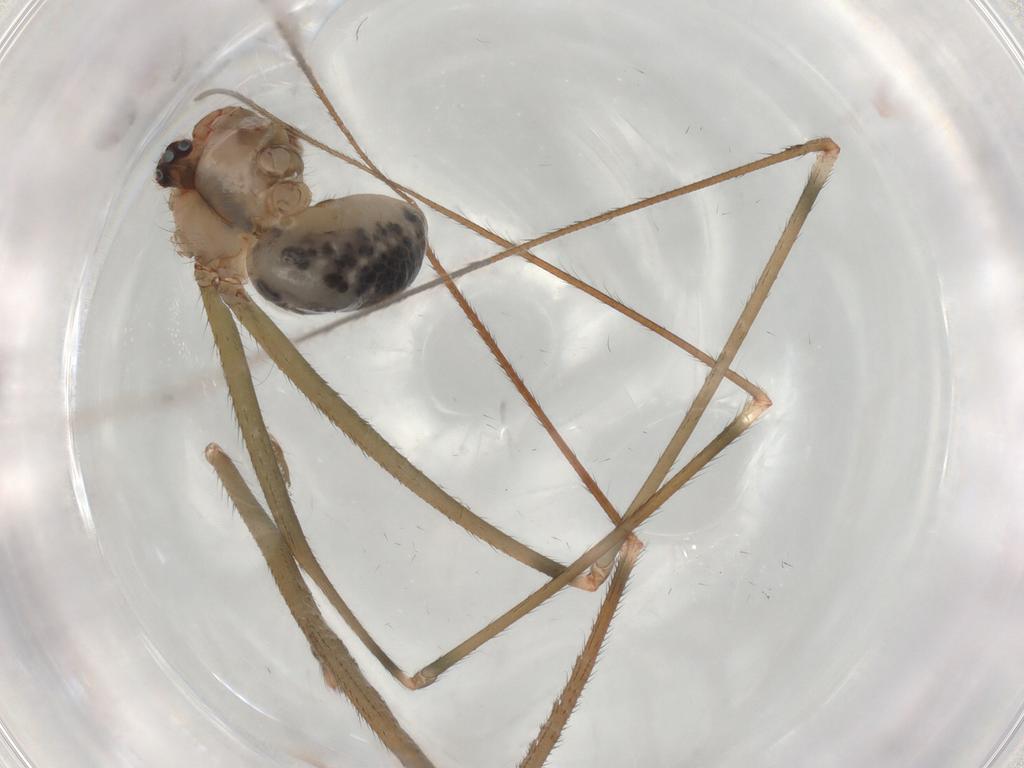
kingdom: Animalia
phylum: Arthropoda
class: Arachnida
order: Araneae
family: Pholcidae
